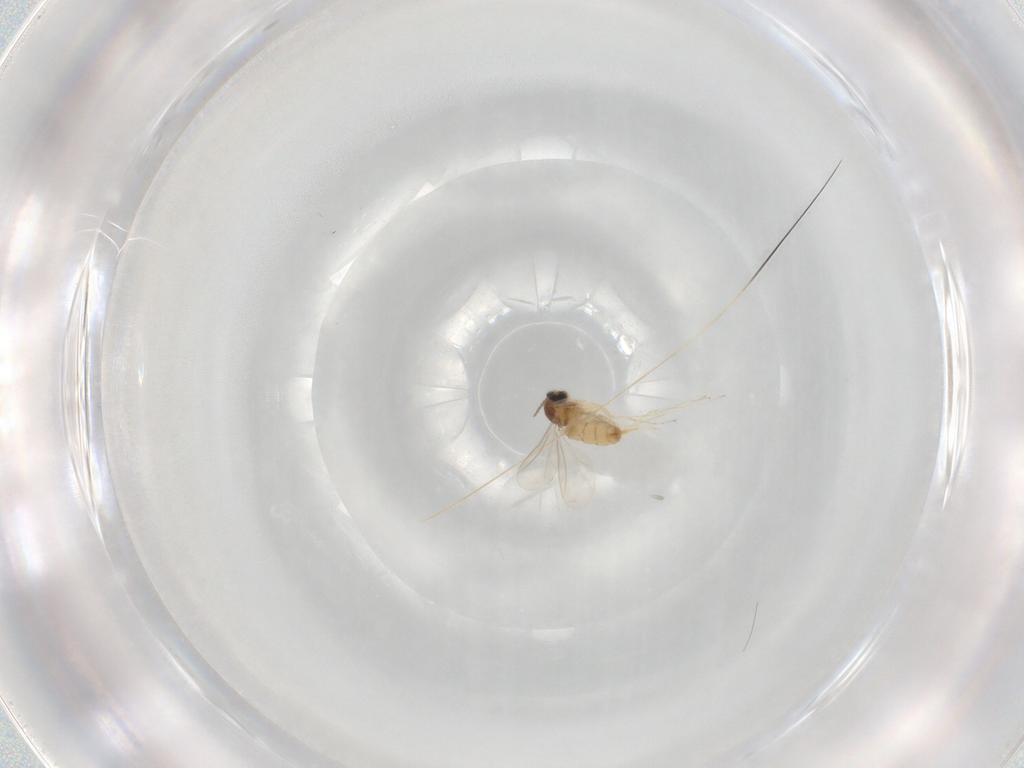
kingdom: Animalia
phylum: Arthropoda
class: Insecta
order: Diptera
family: Cecidomyiidae
